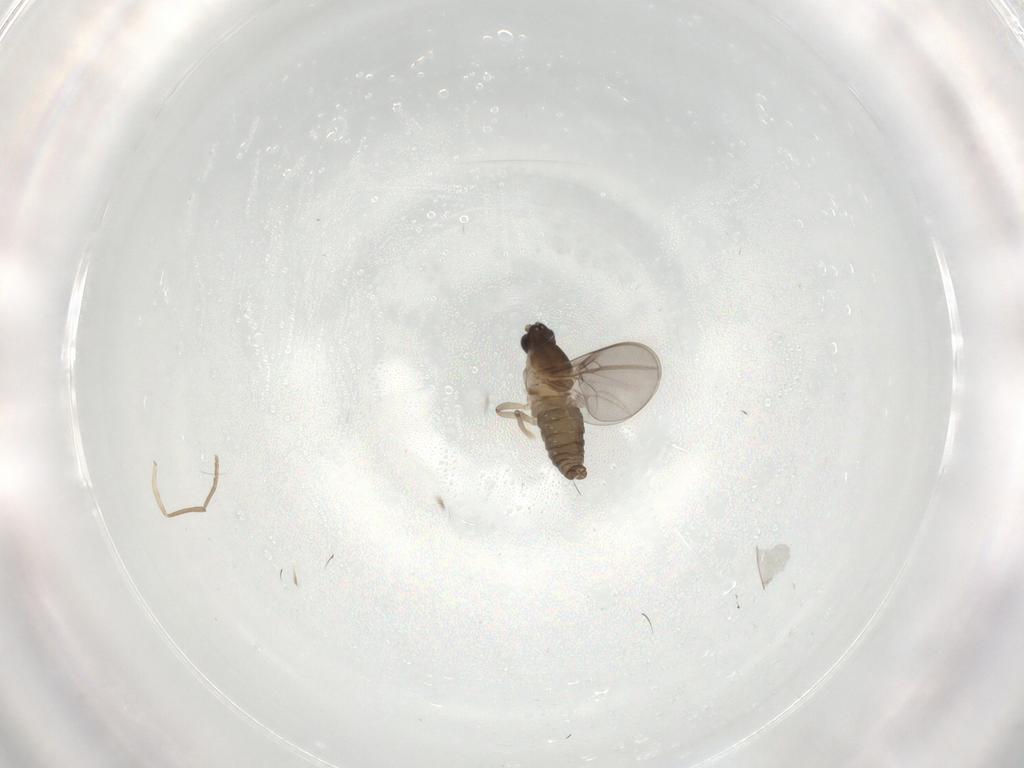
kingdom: Animalia
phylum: Arthropoda
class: Insecta
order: Diptera
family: Cecidomyiidae
